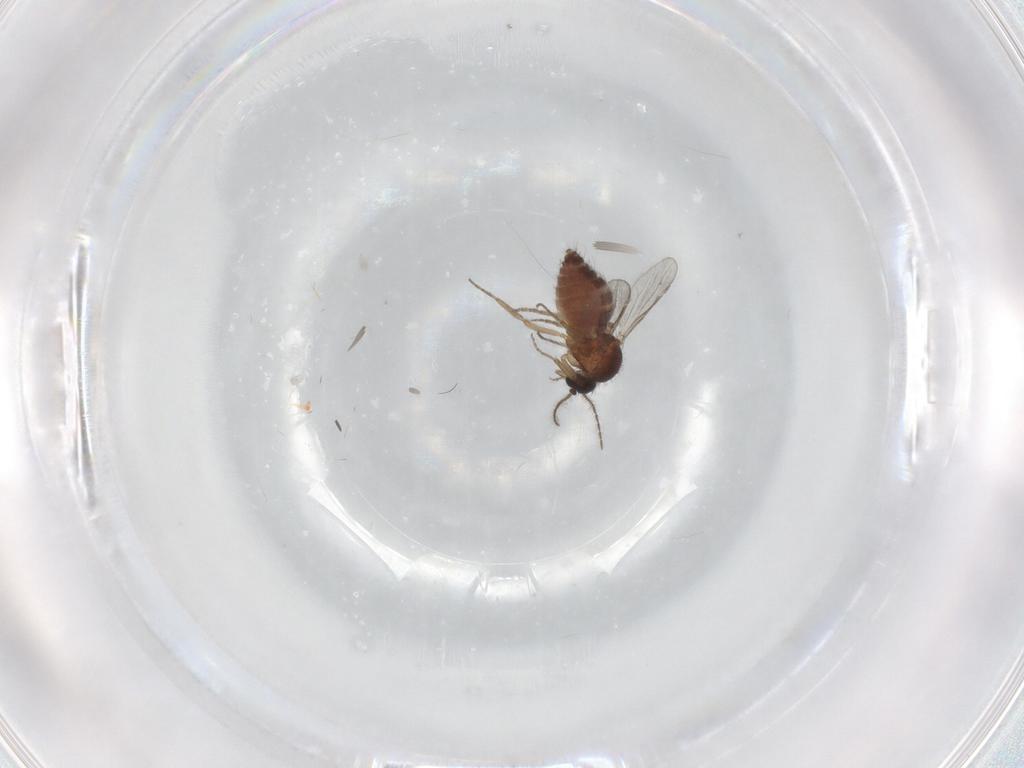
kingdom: Animalia
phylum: Arthropoda
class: Insecta
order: Diptera
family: Ceratopogonidae
